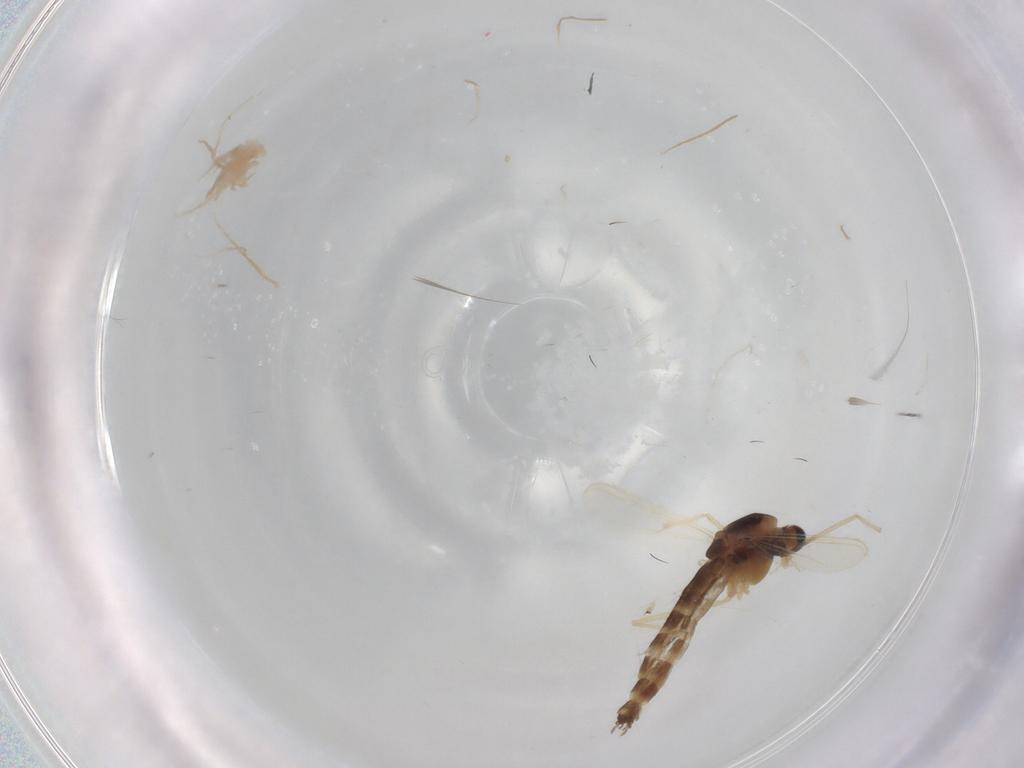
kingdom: Animalia
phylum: Arthropoda
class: Insecta
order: Diptera
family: Chironomidae
